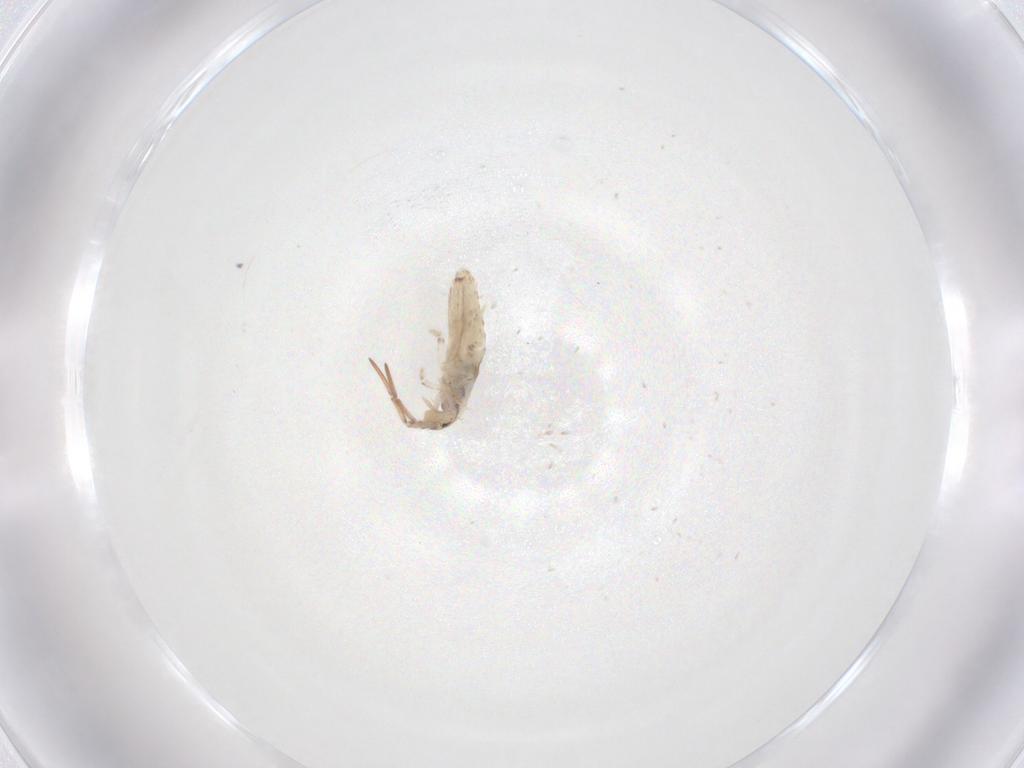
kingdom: Animalia
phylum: Arthropoda
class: Collembola
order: Entomobryomorpha
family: Entomobryidae
